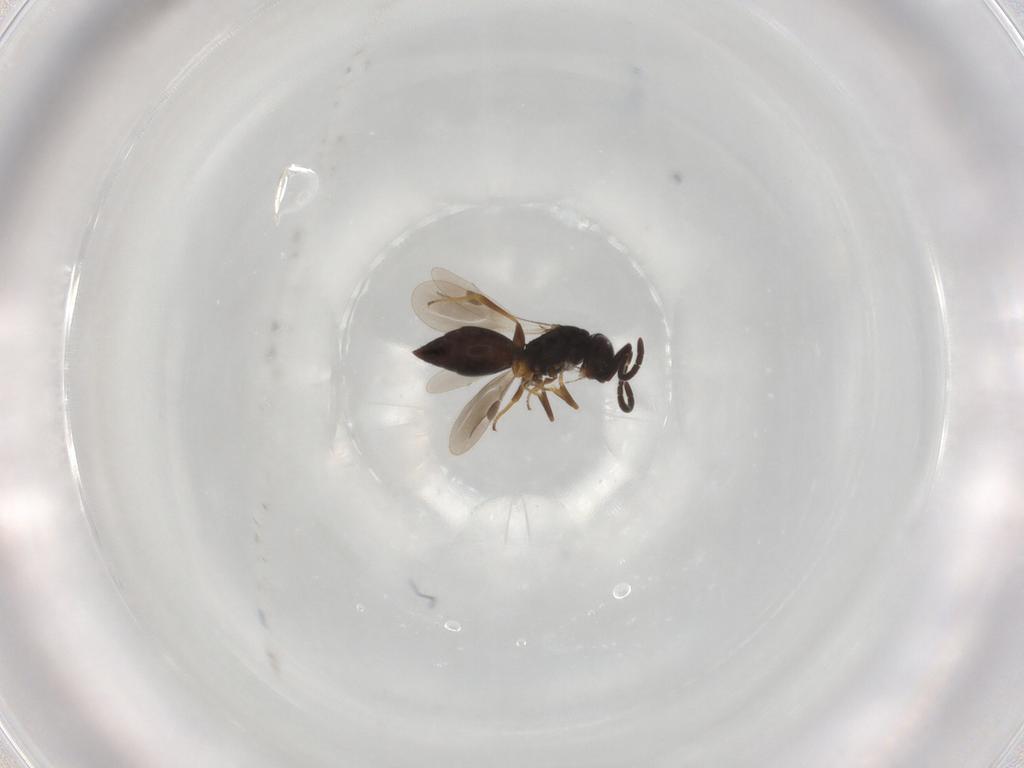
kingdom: Animalia
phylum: Arthropoda
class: Insecta
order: Hymenoptera
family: Megaspilidae
